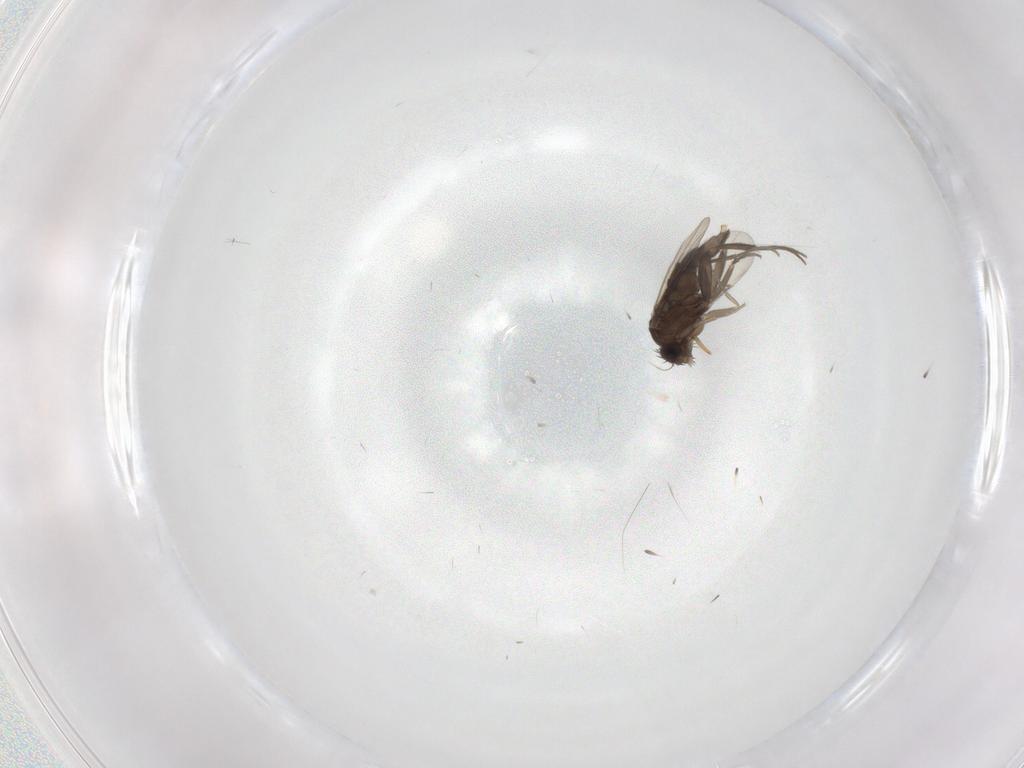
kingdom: Animalia
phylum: Arthropoda
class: Insecta
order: Diptera
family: Phoridae
